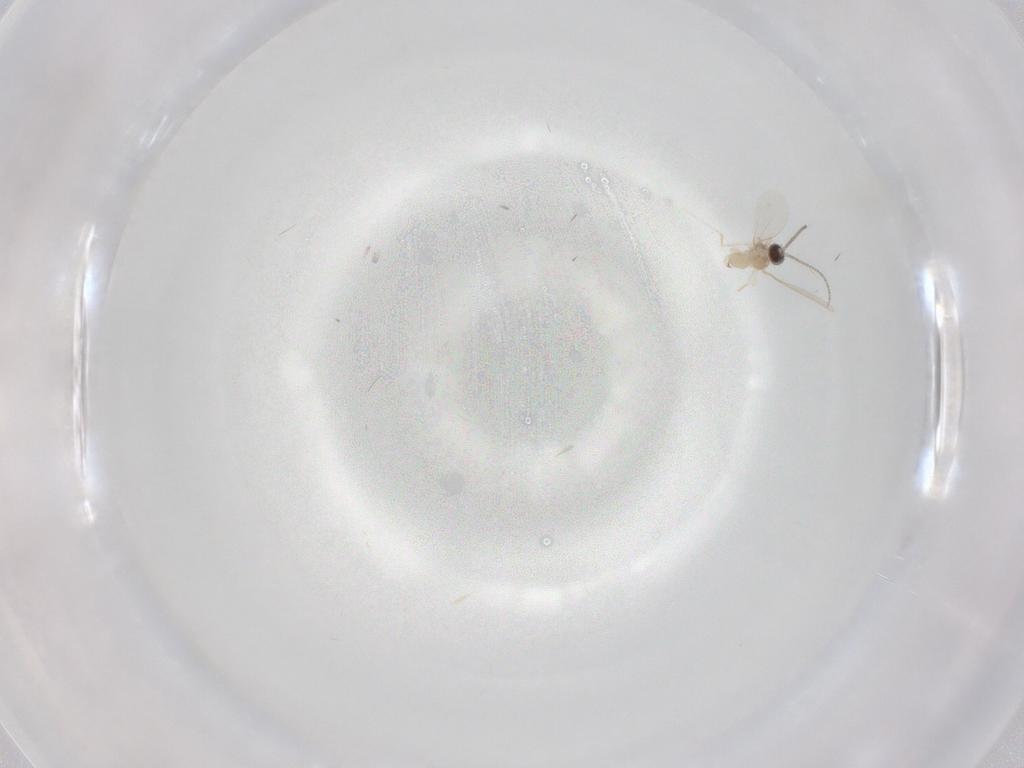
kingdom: Animalia
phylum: Arthropoda
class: Insecta
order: Diptera
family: Cecidomyiidae
